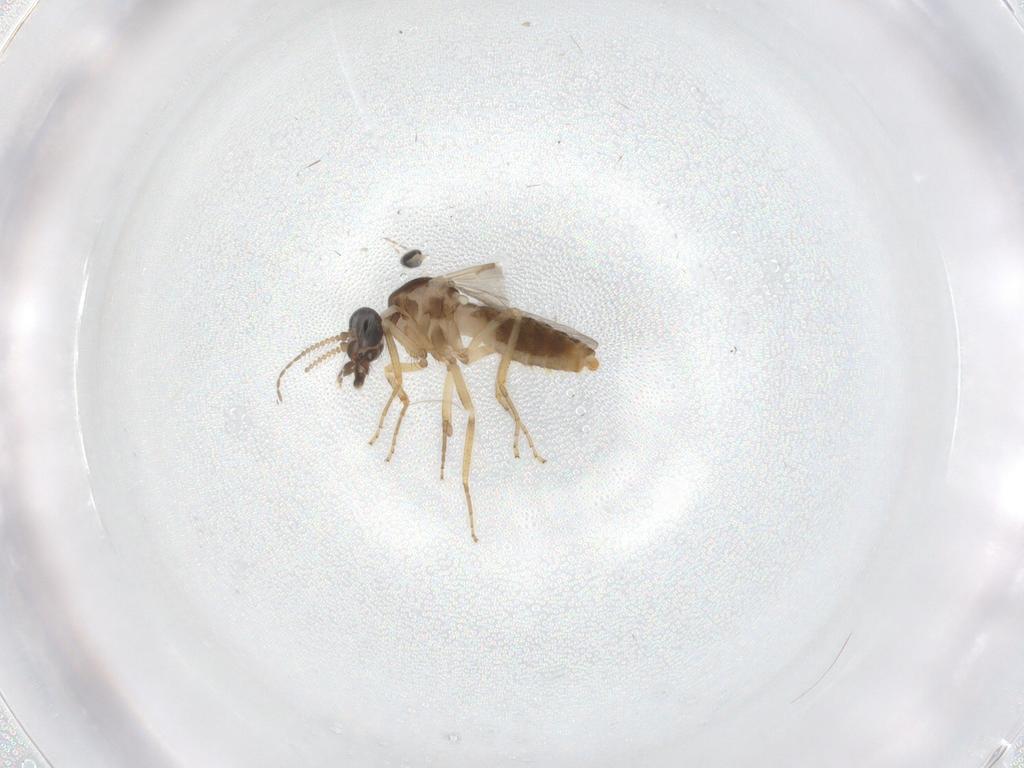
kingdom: Animalia
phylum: Arthropoda
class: Insecta
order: Diptera
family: Ceratopogonidae
